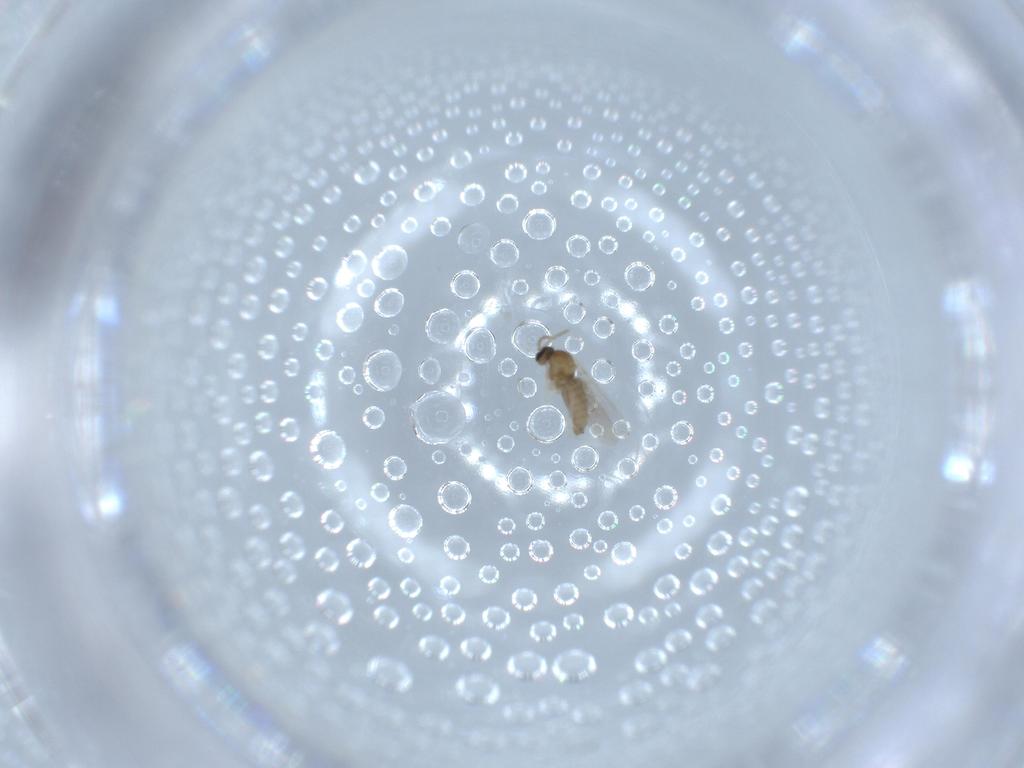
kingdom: Animalia
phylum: Arthropoda
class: Insecta
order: Diptera
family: Cecidomyiidae
